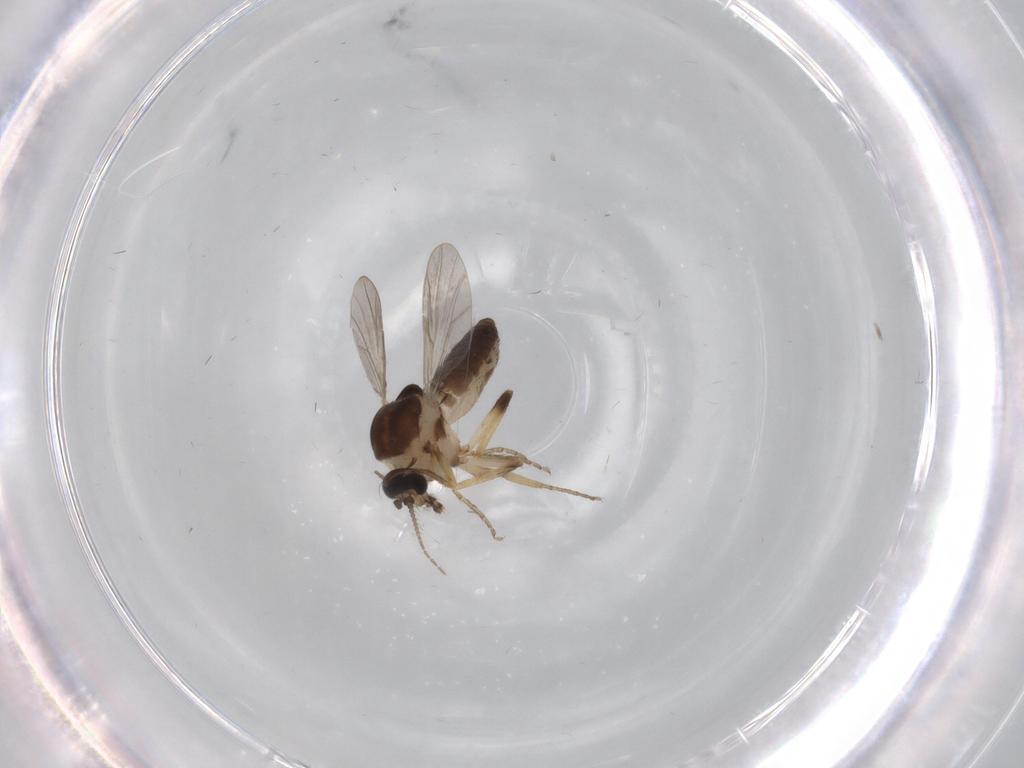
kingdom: Animalia
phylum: Arthropoda
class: Insecta
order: Diptera
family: Ceratopogonidae
